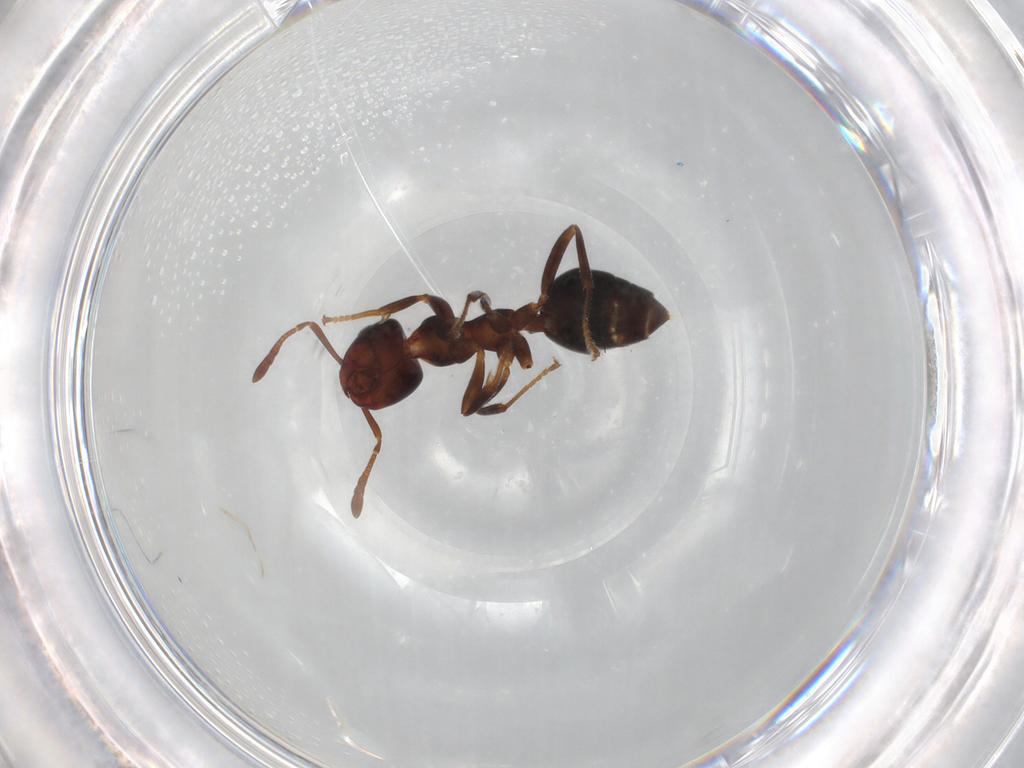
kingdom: Animalia
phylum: Arthropoda
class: Insecta
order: Hymenoptera
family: Formicidae
